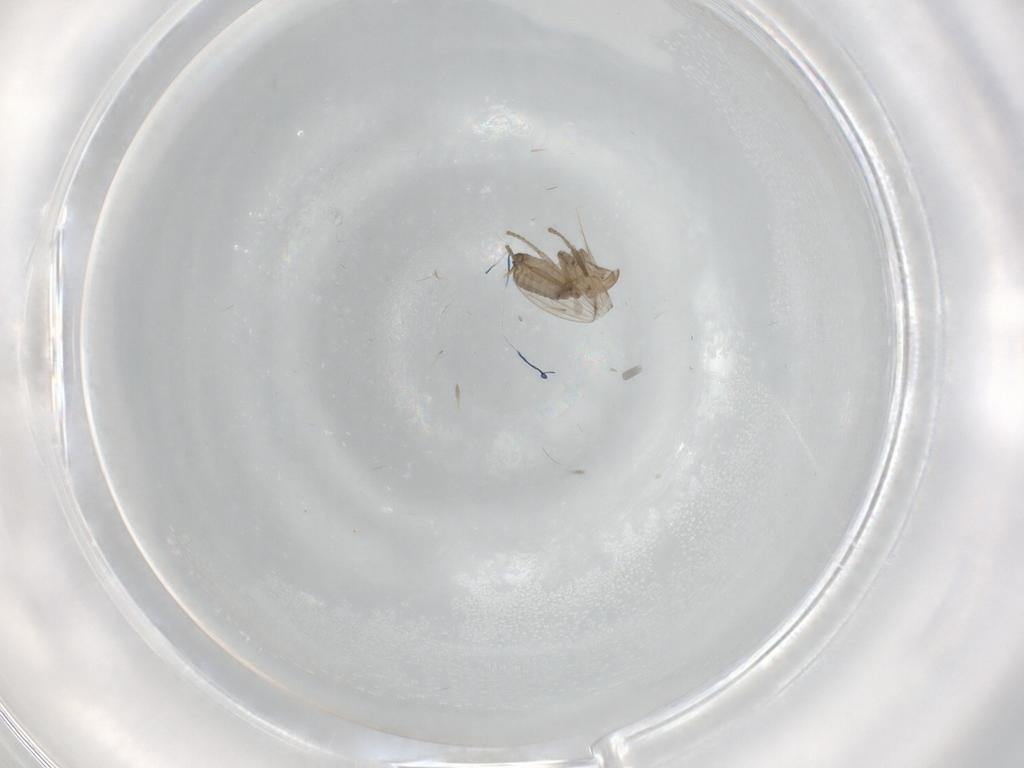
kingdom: Animalia
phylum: Arthropoda
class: Insecta
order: Diptera
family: Psychodidae
